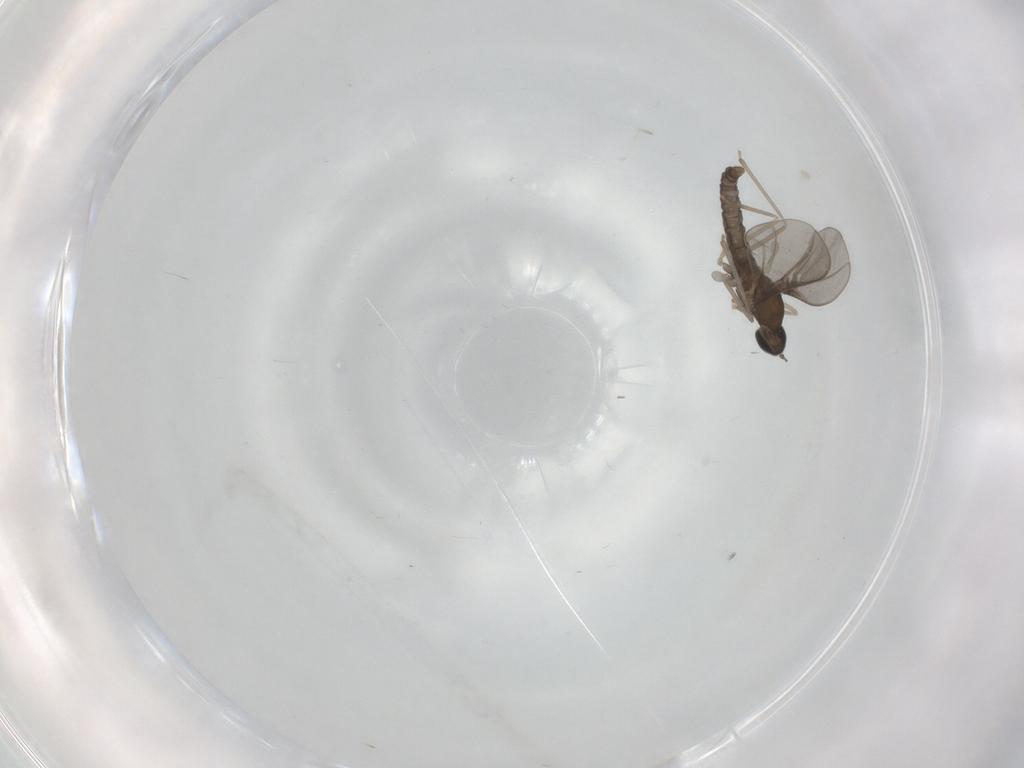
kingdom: Animalia
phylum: Arthropoda
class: Insecta
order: Diptera
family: Cecidomyiidae
